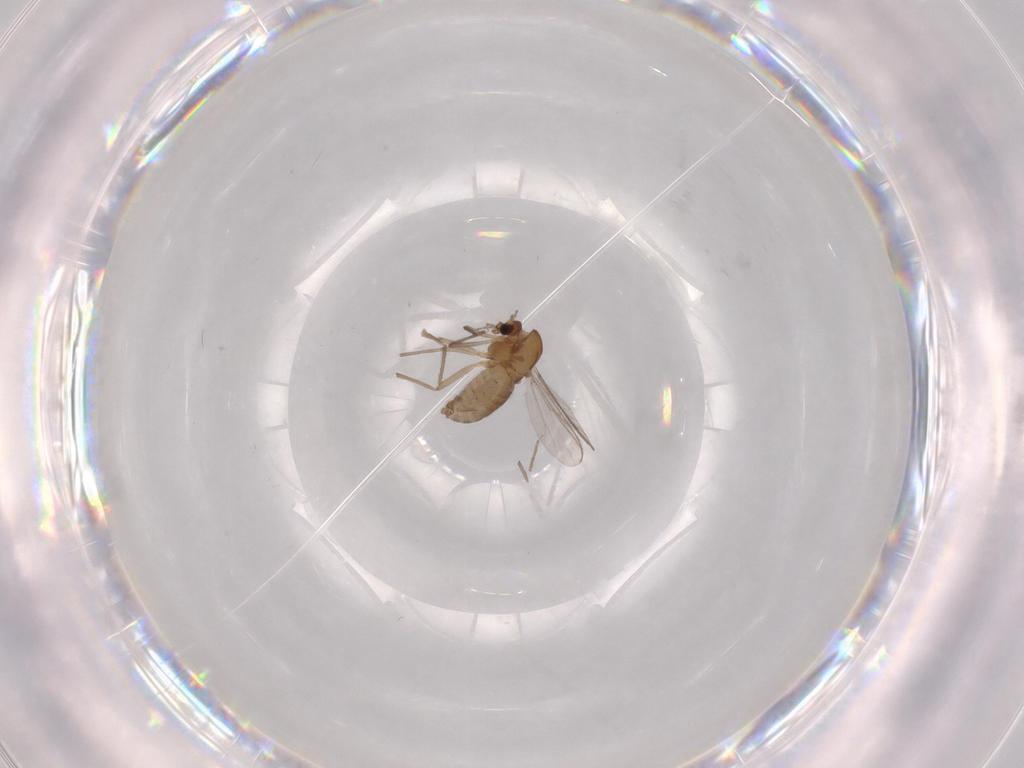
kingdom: Animalia
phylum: Arthropoda
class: Insecta
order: Diptera
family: Chironomidae
